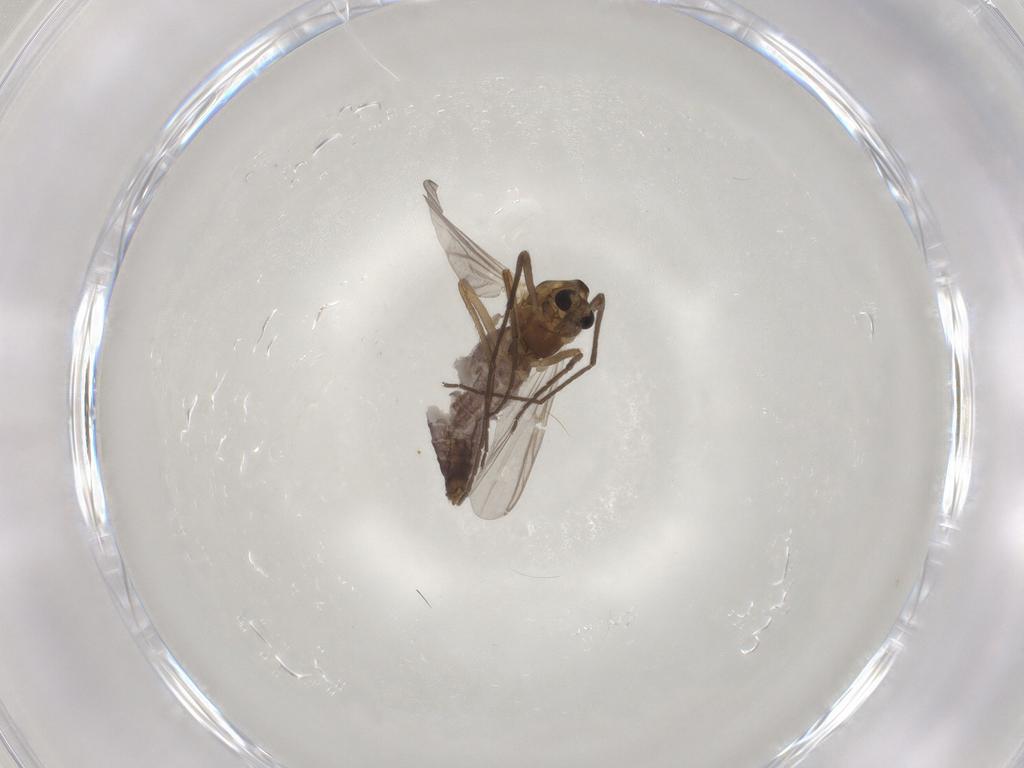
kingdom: Animalia
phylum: Arthropoda
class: Insecta
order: Diptera
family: Chironomidae
